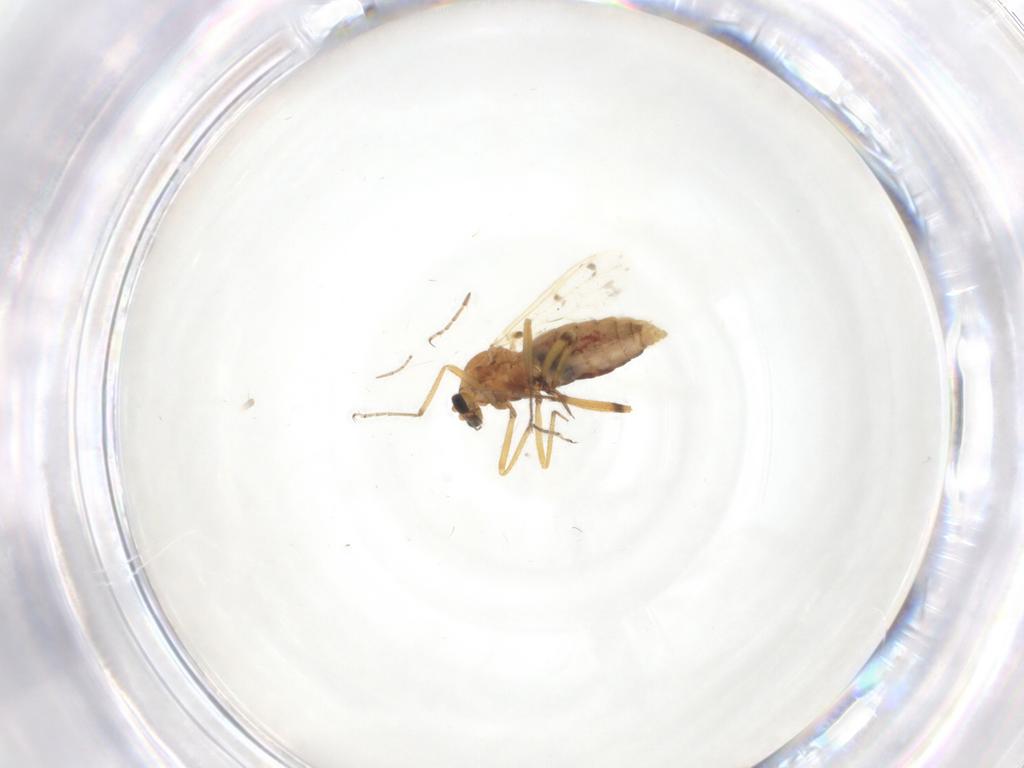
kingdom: Animalia
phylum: Arthropoda
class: Insecta
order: Diptera
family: Ceratopogonidae
